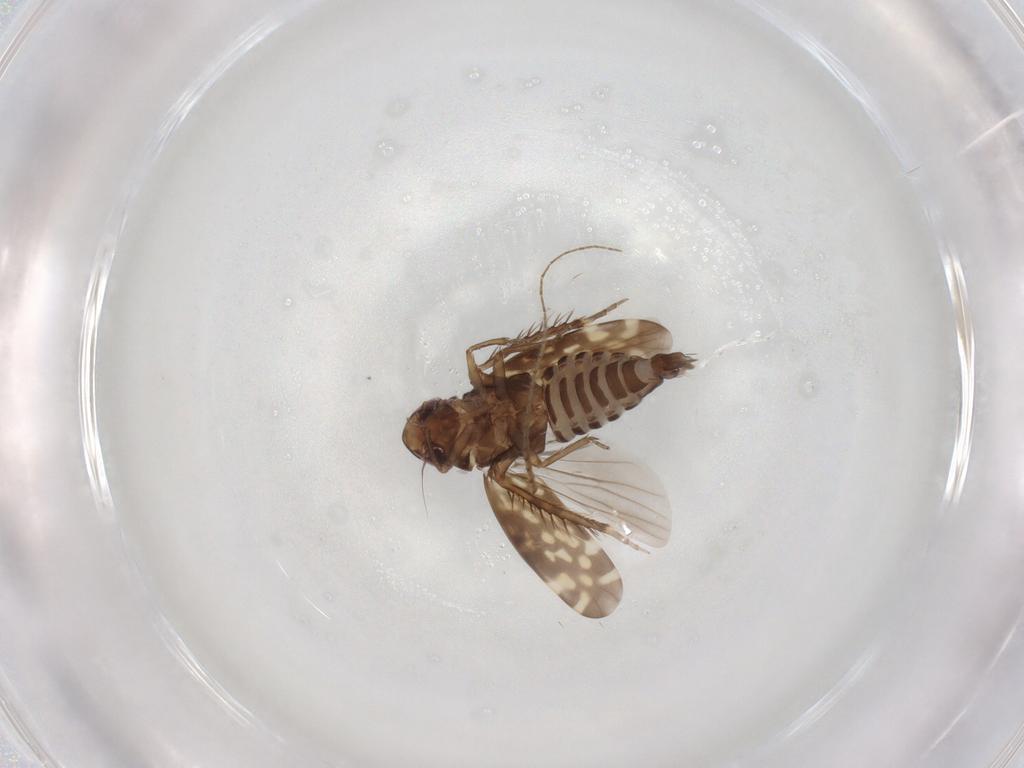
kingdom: Animalia
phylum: Arthropoda
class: Insecta
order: Hemiptera
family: Cicadellidae
